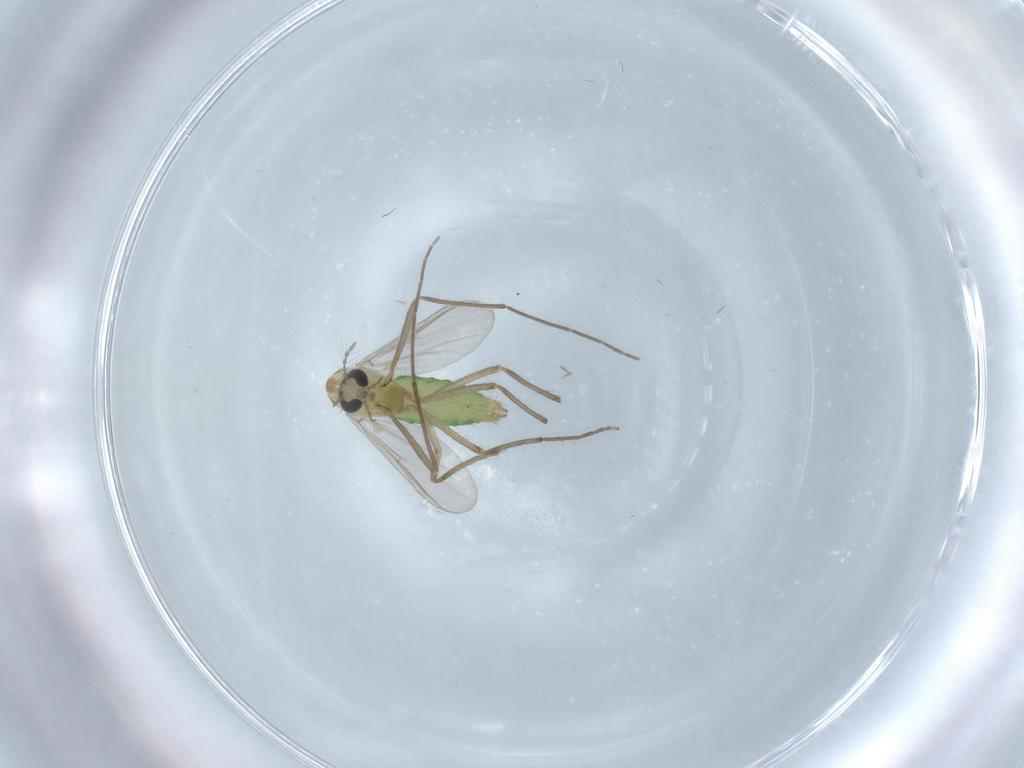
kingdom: Animalia
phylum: Arthropoda
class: Insecta
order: Diptera
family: Chironomidae
